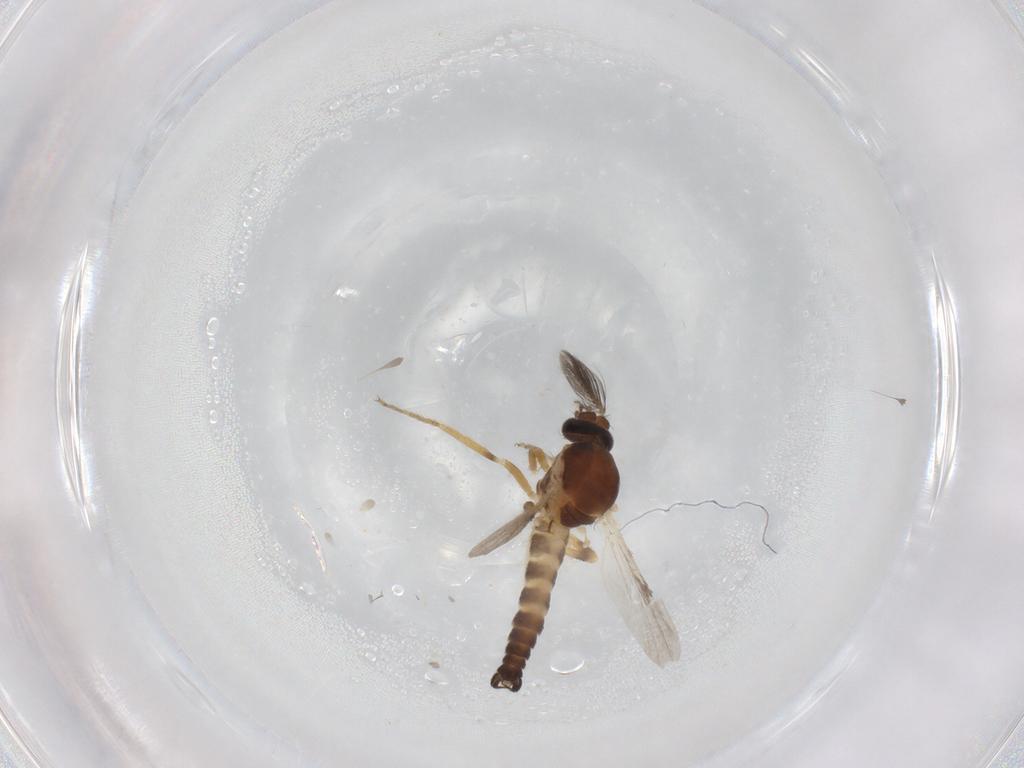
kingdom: Animalia
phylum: Arthropoda
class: Insecta
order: Diptera
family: Ceratopogonidae
